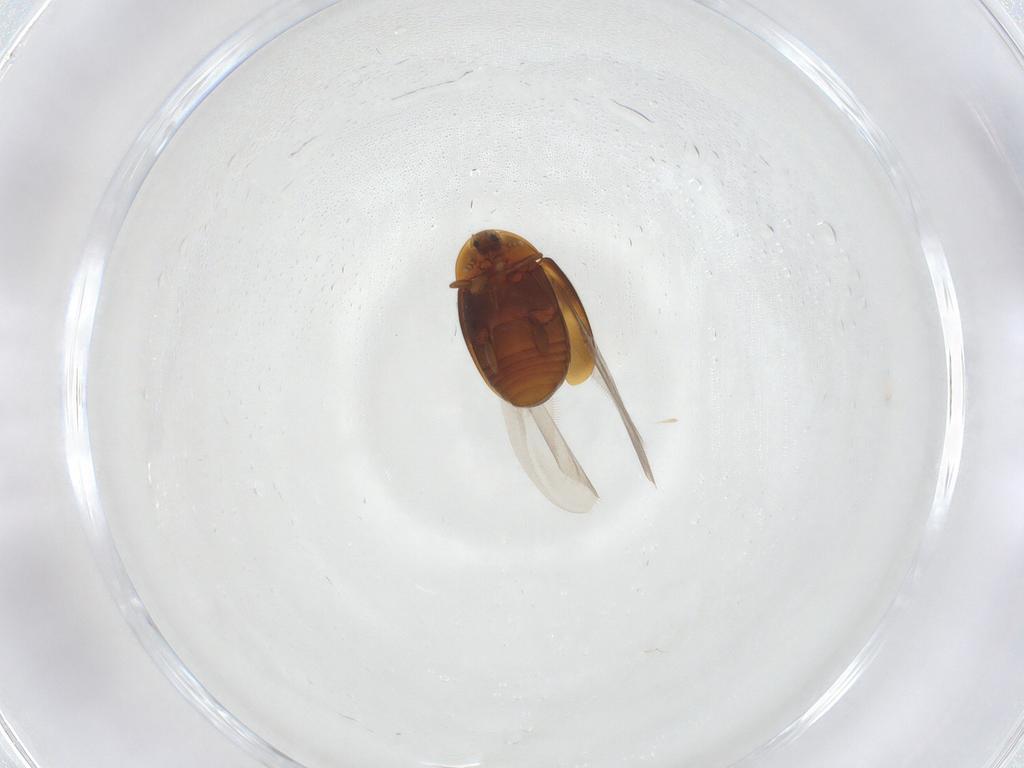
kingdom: Animalia
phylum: Arthropoda
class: Insecta
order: Coleoptera
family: Corylophidae
